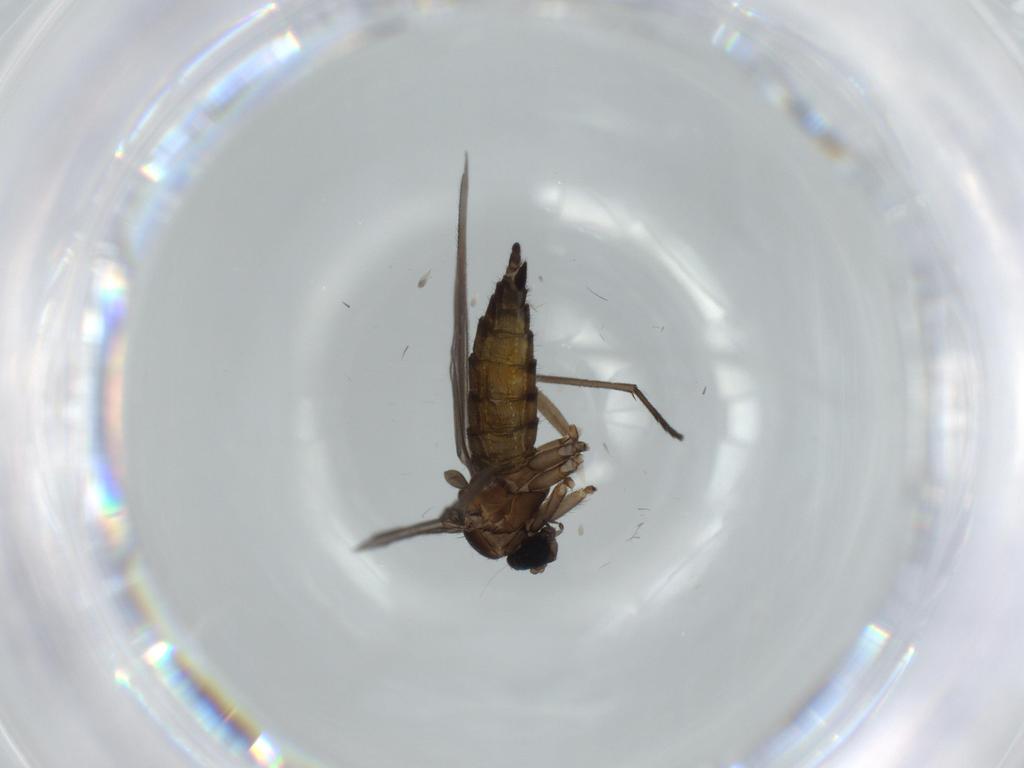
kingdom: Animalia
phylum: Arthropoda
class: Insecta
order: Diptera
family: Sciaridae
